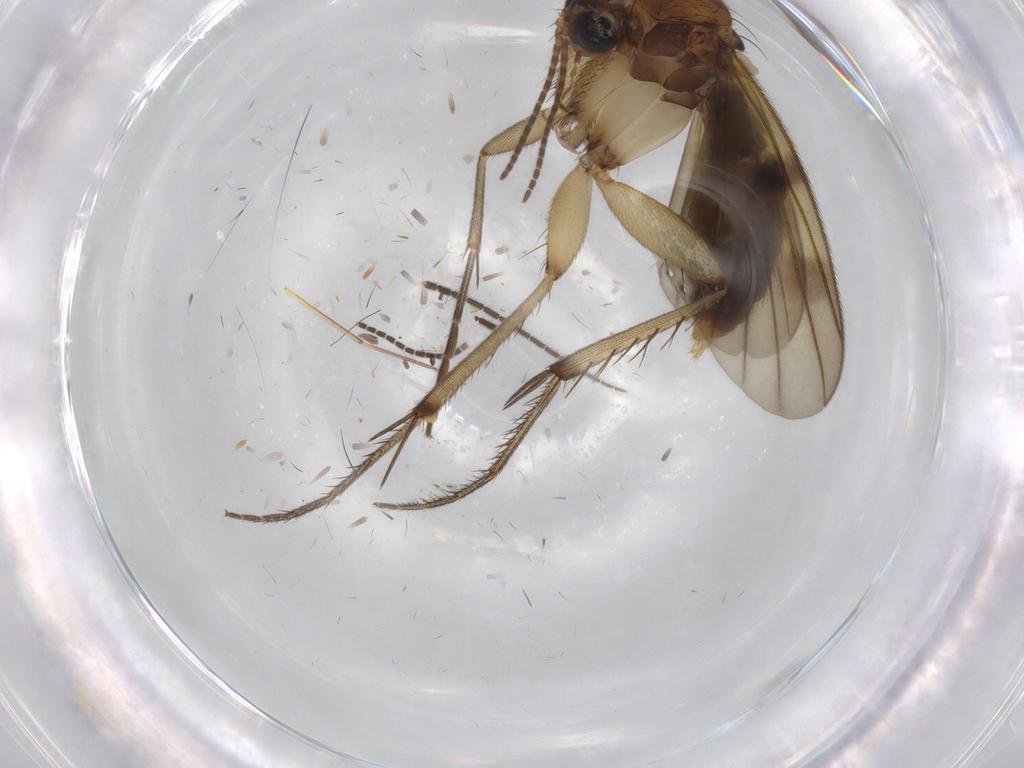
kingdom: Animalia
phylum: Arthropoda
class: Insecta
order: Diptera
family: Sciaridae
